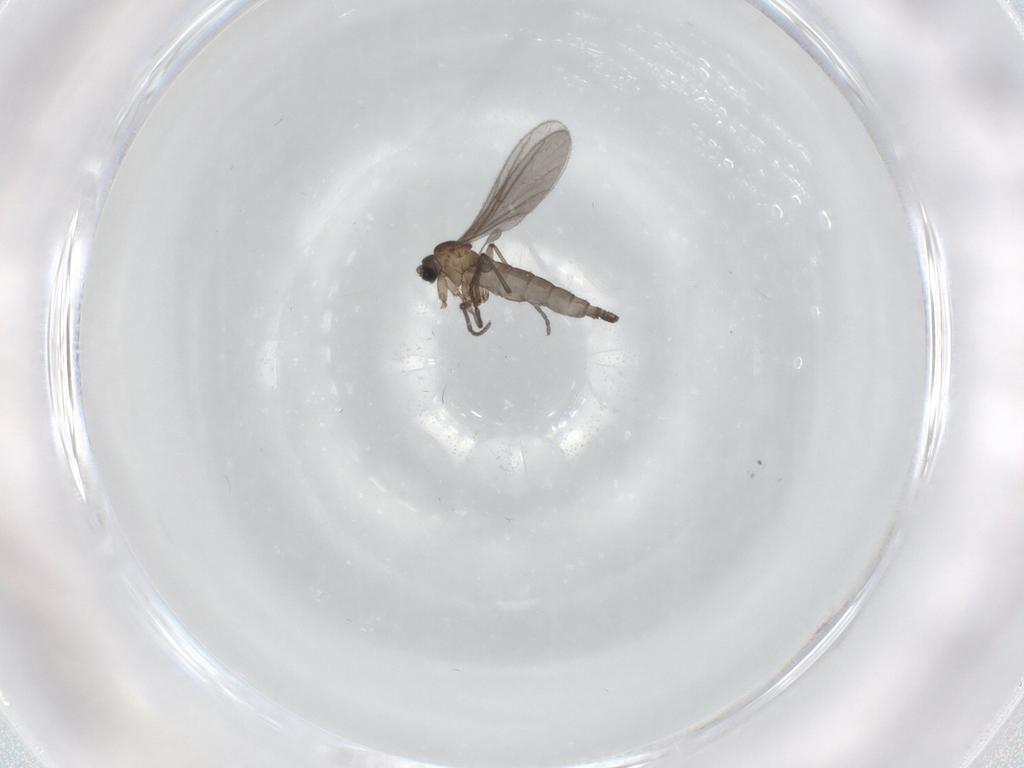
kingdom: Animalia
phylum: Arthropoda
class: Insecta
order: Diptera
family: Sciaridae
